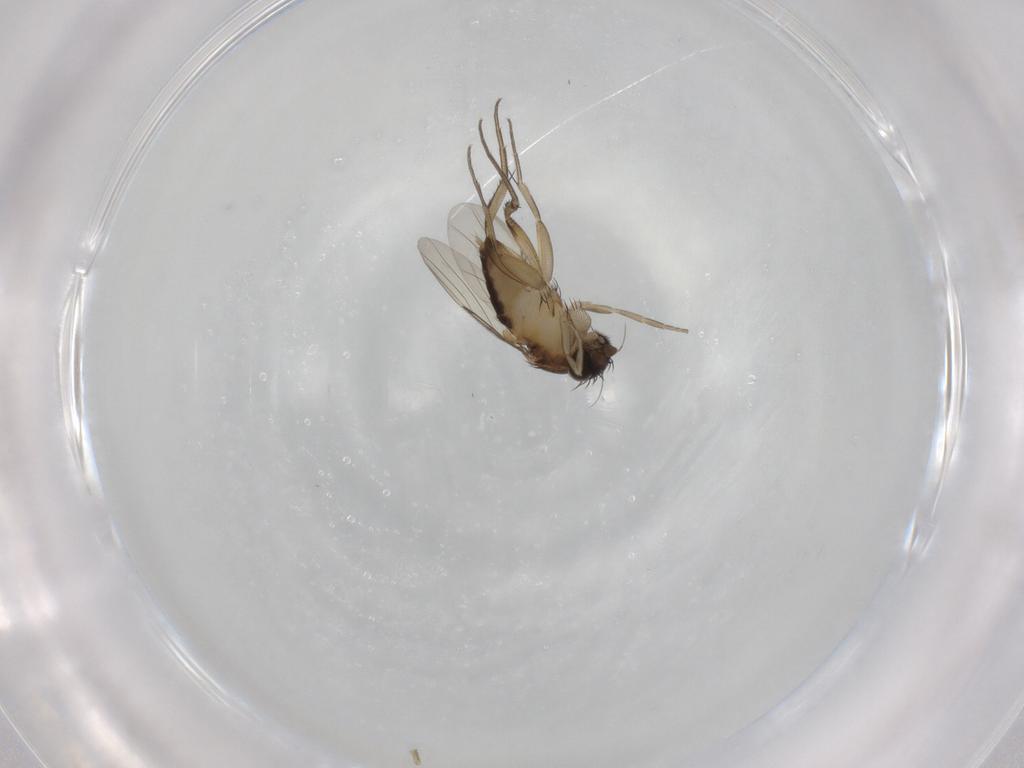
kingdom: Animalia
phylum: Arthropoda
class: Insecta
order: Diptera
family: Phoridae
